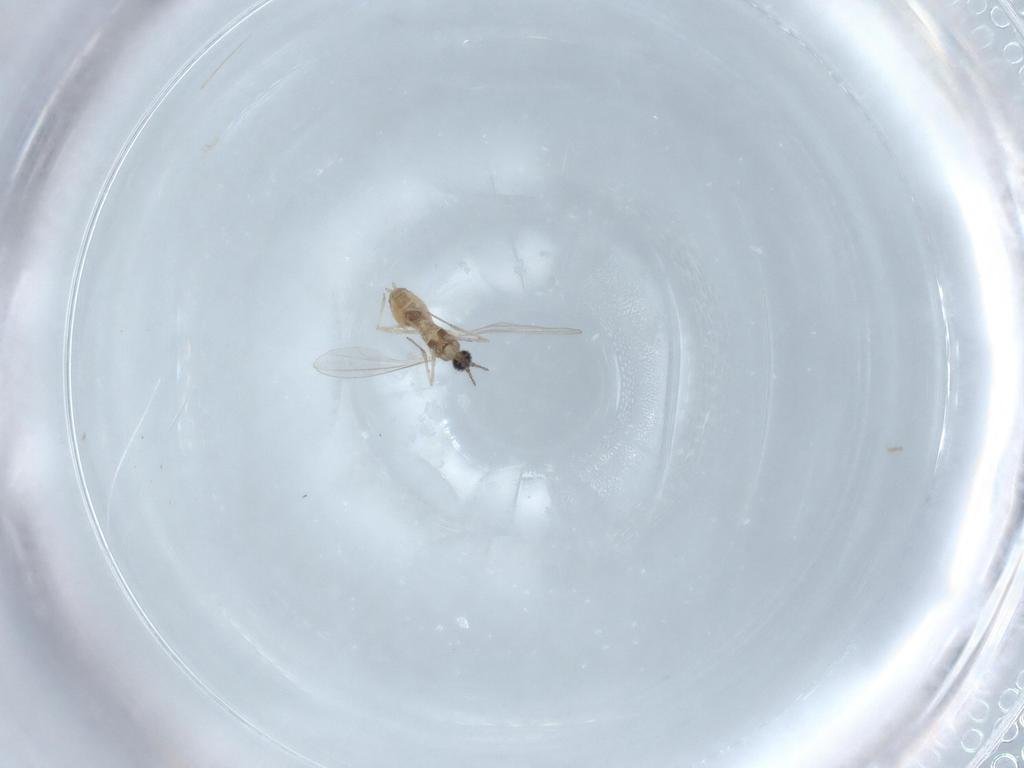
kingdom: Animalia
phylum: Arthropoda
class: Insecta
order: Diptera
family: Cecidomyiidae
